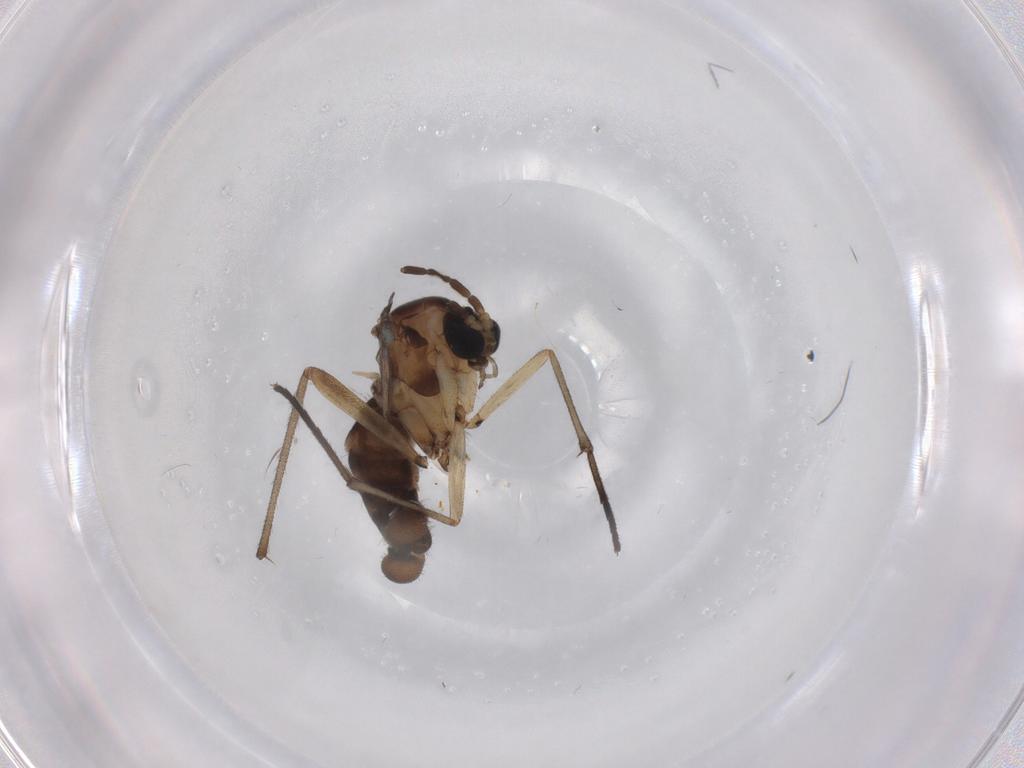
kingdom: Animalia
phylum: Arthropoda
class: Insecta
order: Diptera
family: Sciaridae
